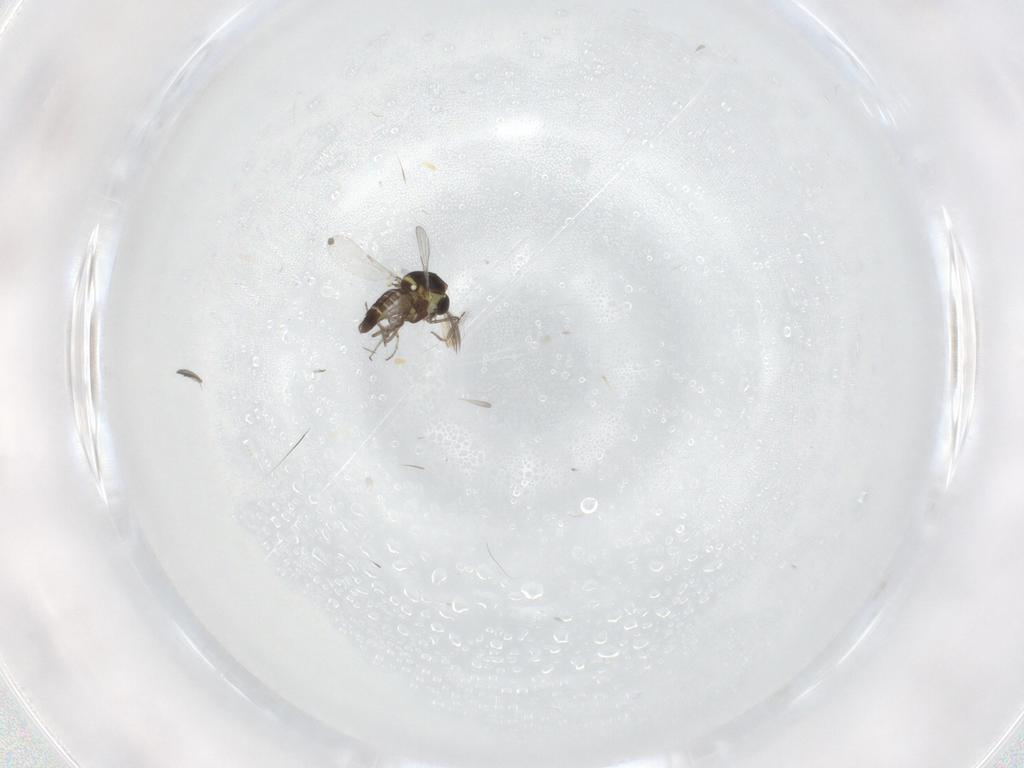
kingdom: Animalia
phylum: Arthropoda
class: Insecta
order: Diptera
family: Ceratopogonidae
